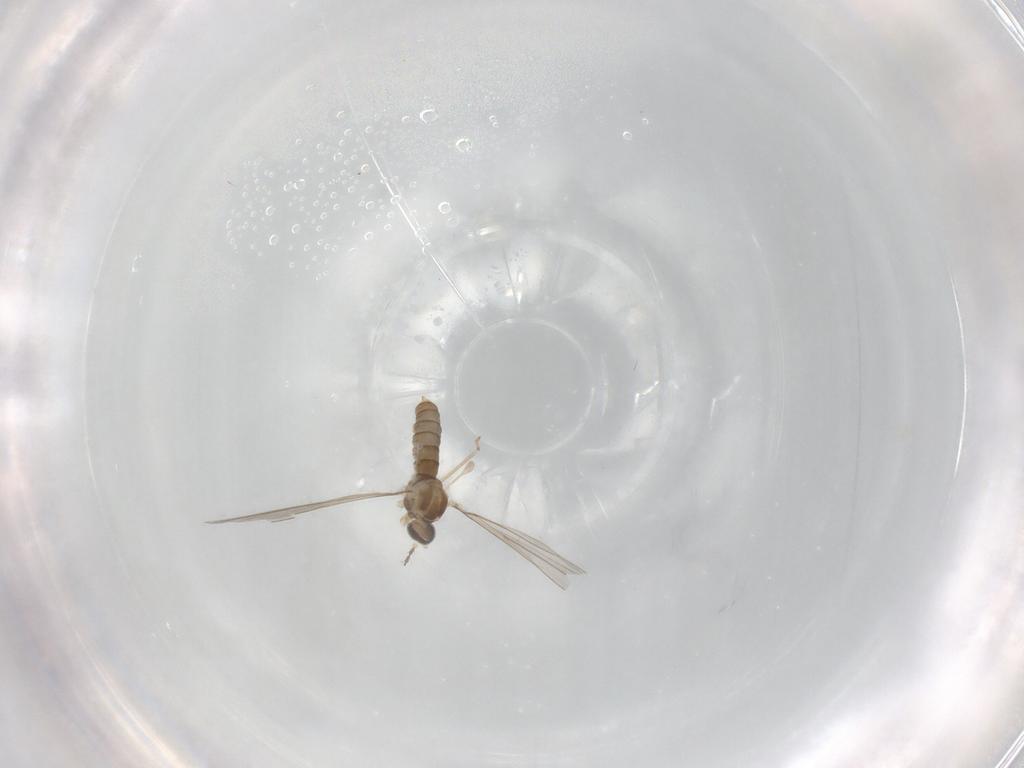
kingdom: Animalia
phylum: Arthropoda
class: Insecta
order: Diptera
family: Cecidomyiidae
